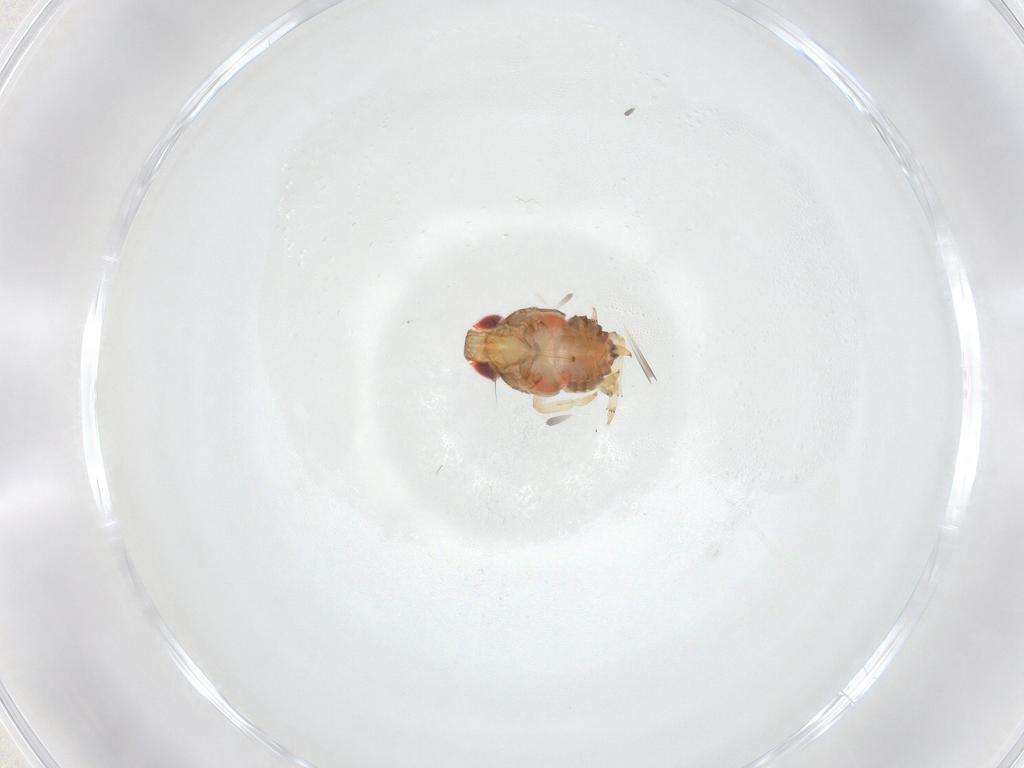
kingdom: Animalia
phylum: Arthropoda
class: Insecta
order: Hemiptera
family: Issidae
